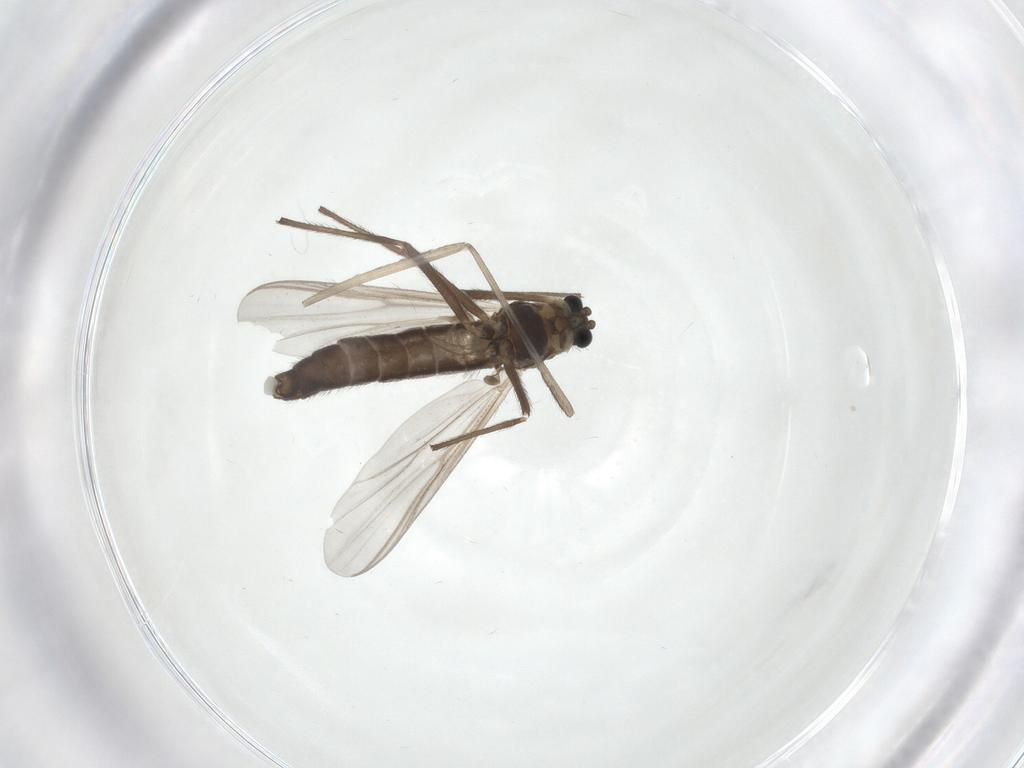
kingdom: Animalia
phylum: Arthropoda
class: Insecta
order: Diptera
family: Chironomidae
